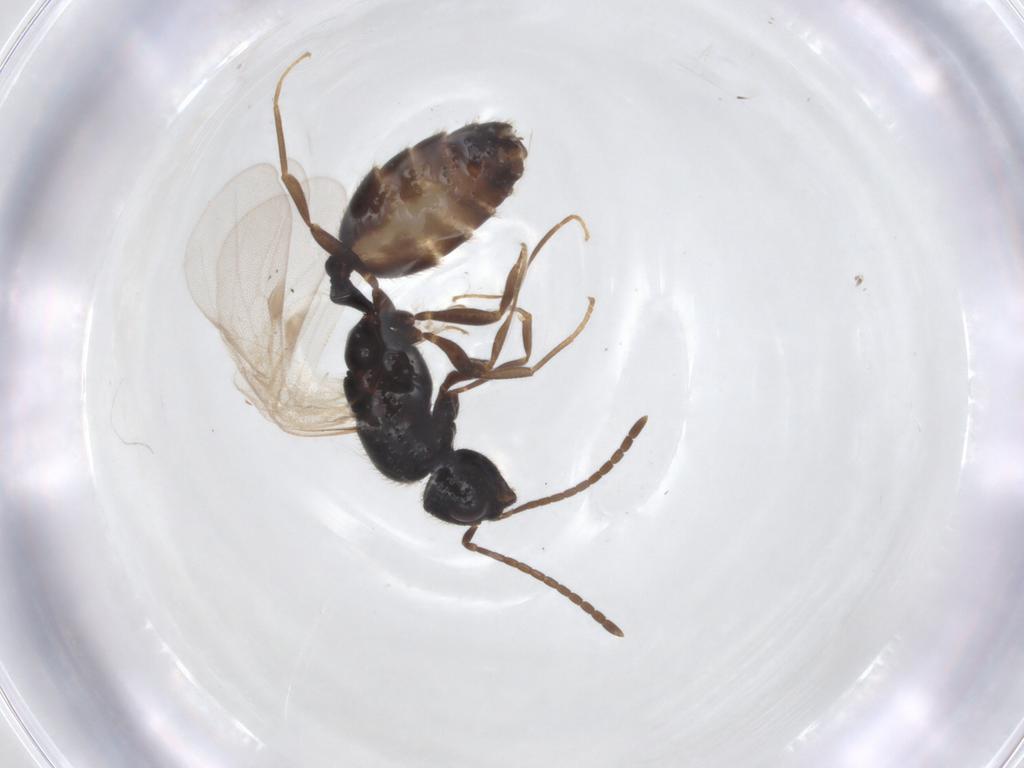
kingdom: Animalia
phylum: Arthropoda
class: Insecta
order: Hymenoptera
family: Formicidae
